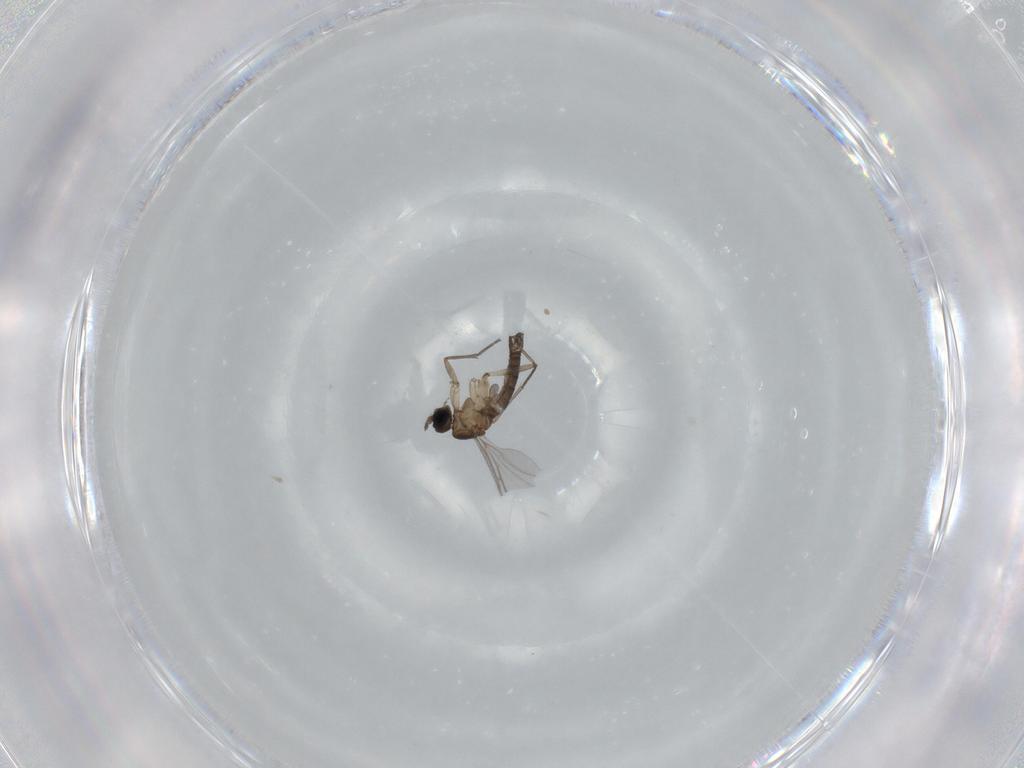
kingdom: Animalia
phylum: Arthropoda
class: Insecta
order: Diptera
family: Sciaridae
